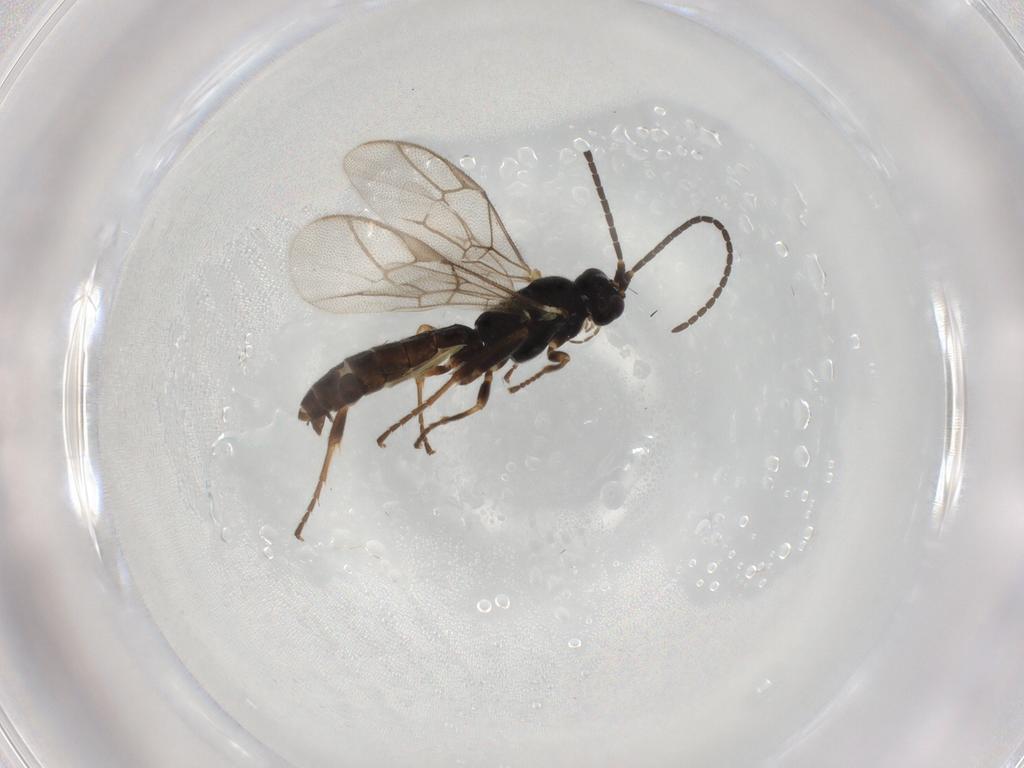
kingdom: Animalia
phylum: Arthropoda
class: Insecta
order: Hymenoptera
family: Ichneumonidae
